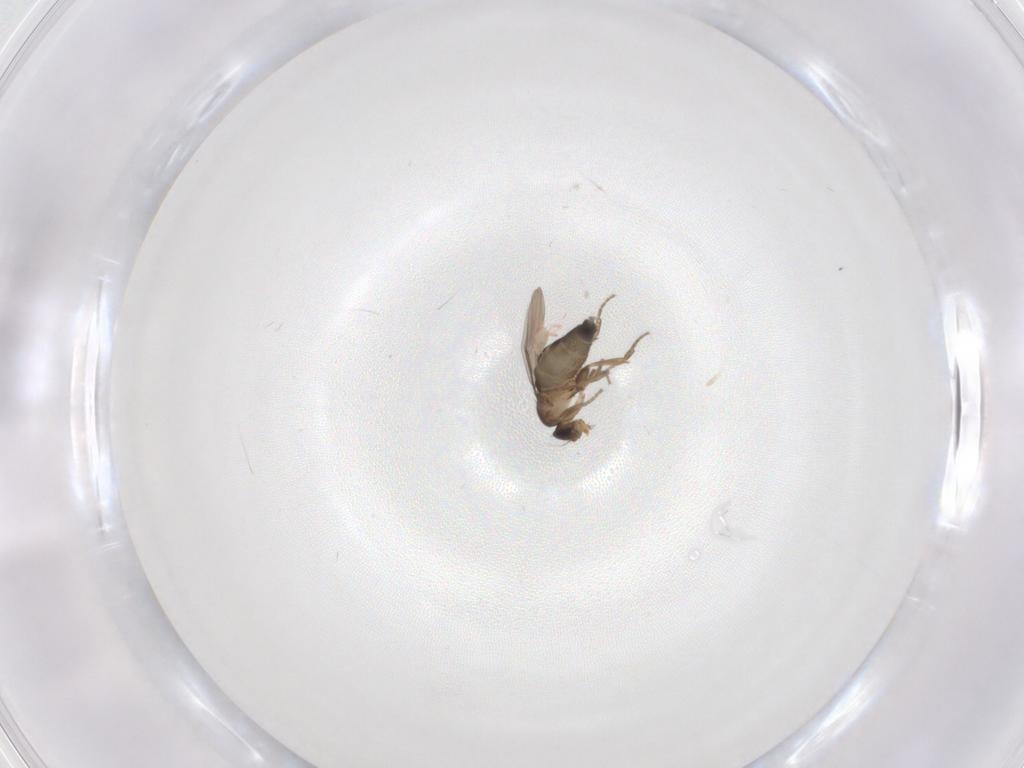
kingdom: Animalia
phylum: Arthropoda
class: Insecta
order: Diptera
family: Phoridae
